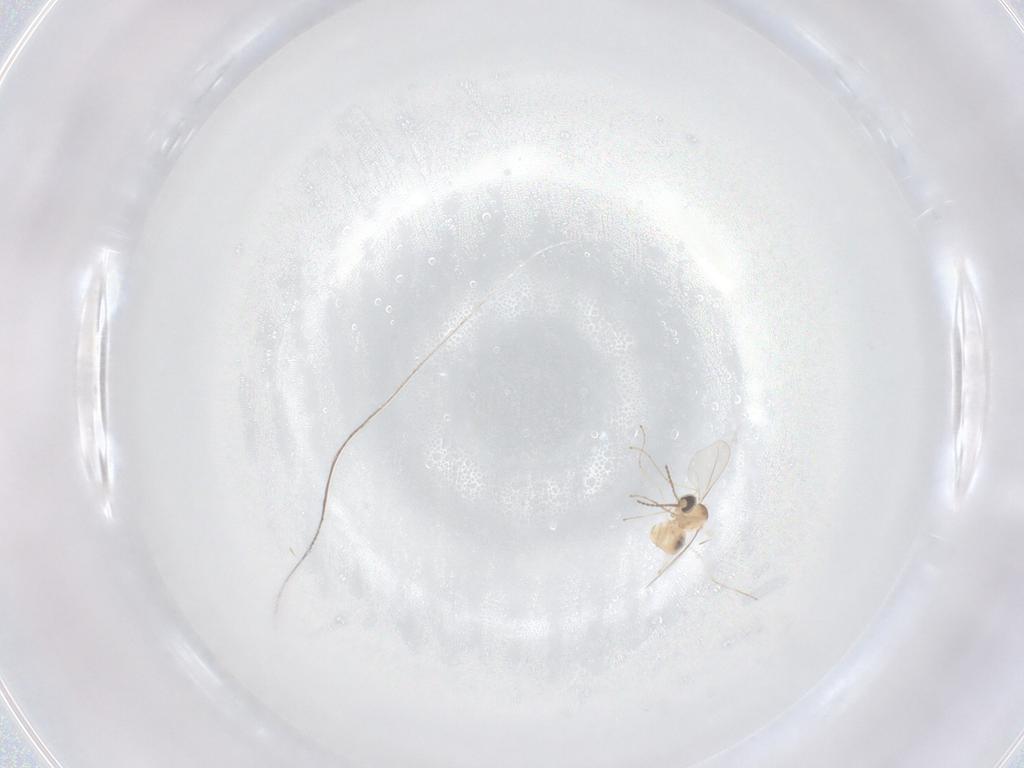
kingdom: Animalia
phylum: Arthropoda
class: Insecta
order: Diptera
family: Cecidomyiidae
